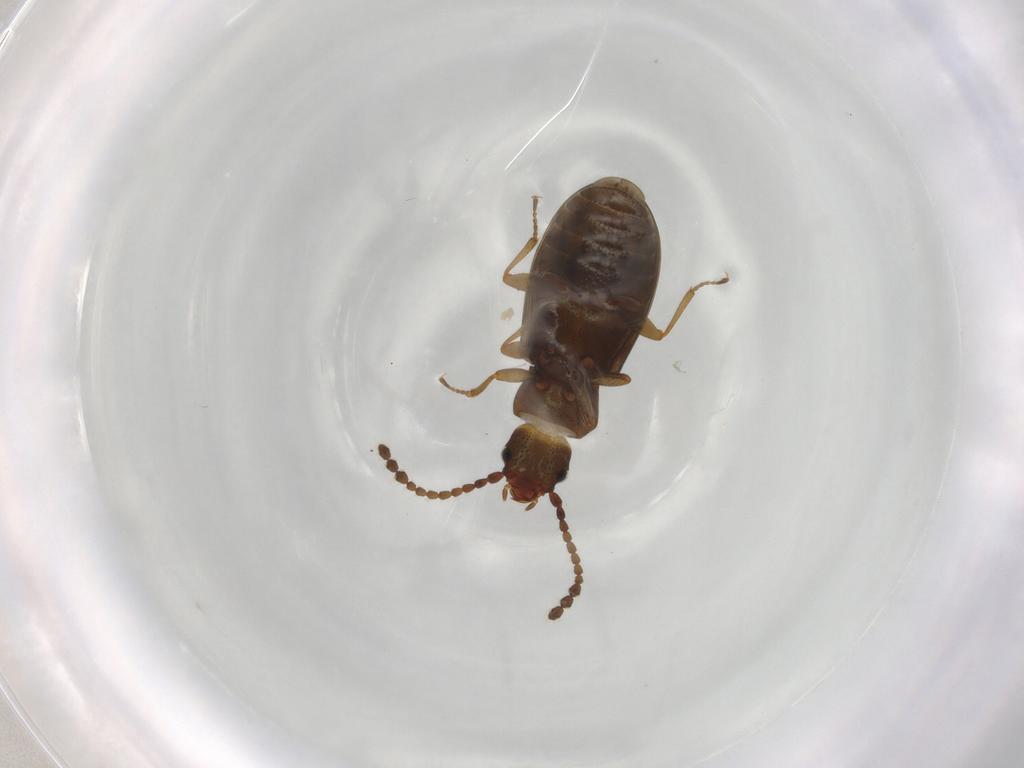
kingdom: Animalia
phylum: Arthropoda
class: Insecta
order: Coleoptera
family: Laemophloeidae
